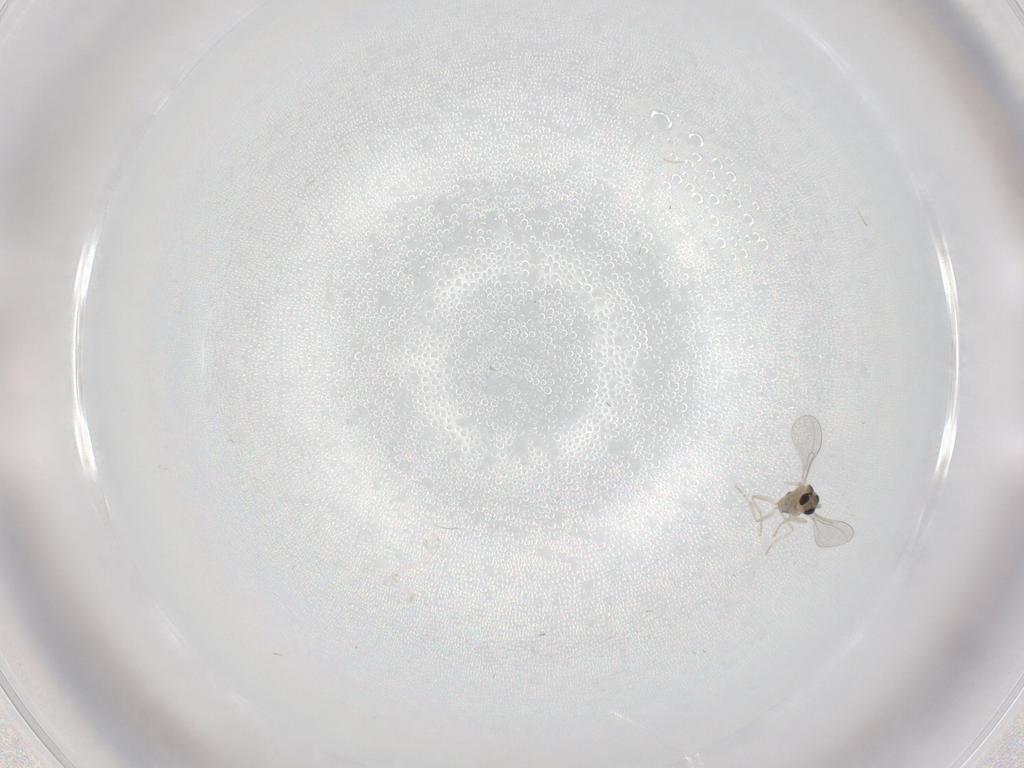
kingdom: Animalia
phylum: Arthropoda
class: Insecta
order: Diptera
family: Cecidomyiidae
